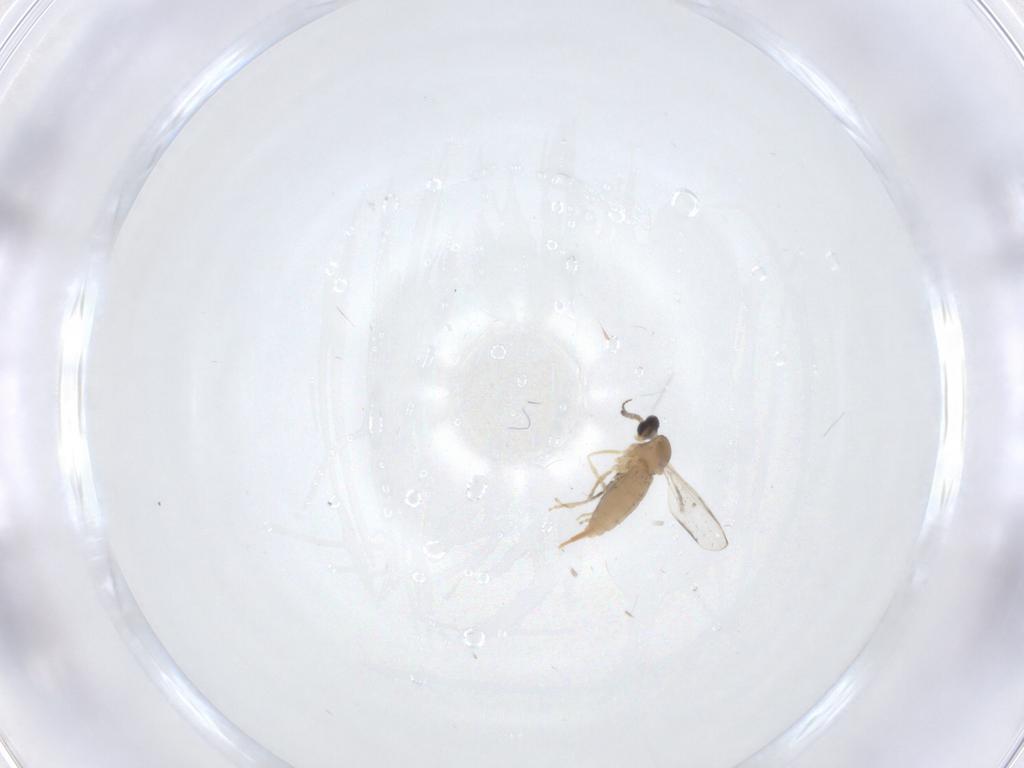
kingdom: Animalia
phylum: Arthropoda
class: Insecta
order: Diptera
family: Cecidomyiidae
